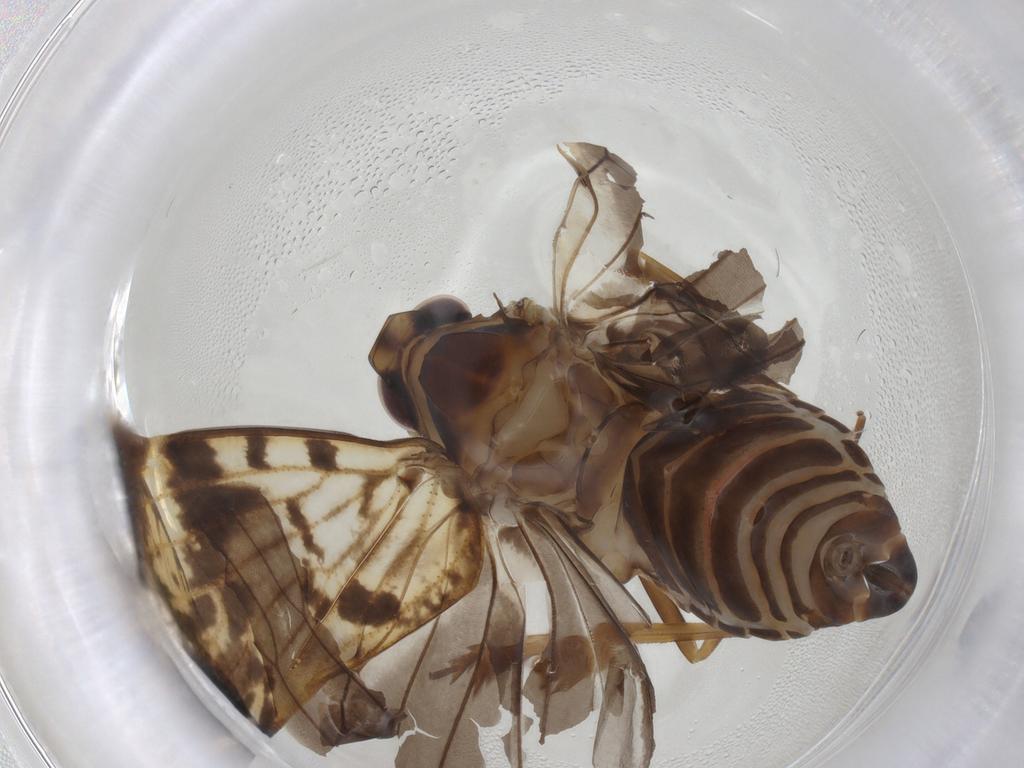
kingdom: Animalia
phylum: Arthropoda
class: Insecta
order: Hemiptera
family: Cixiidae
